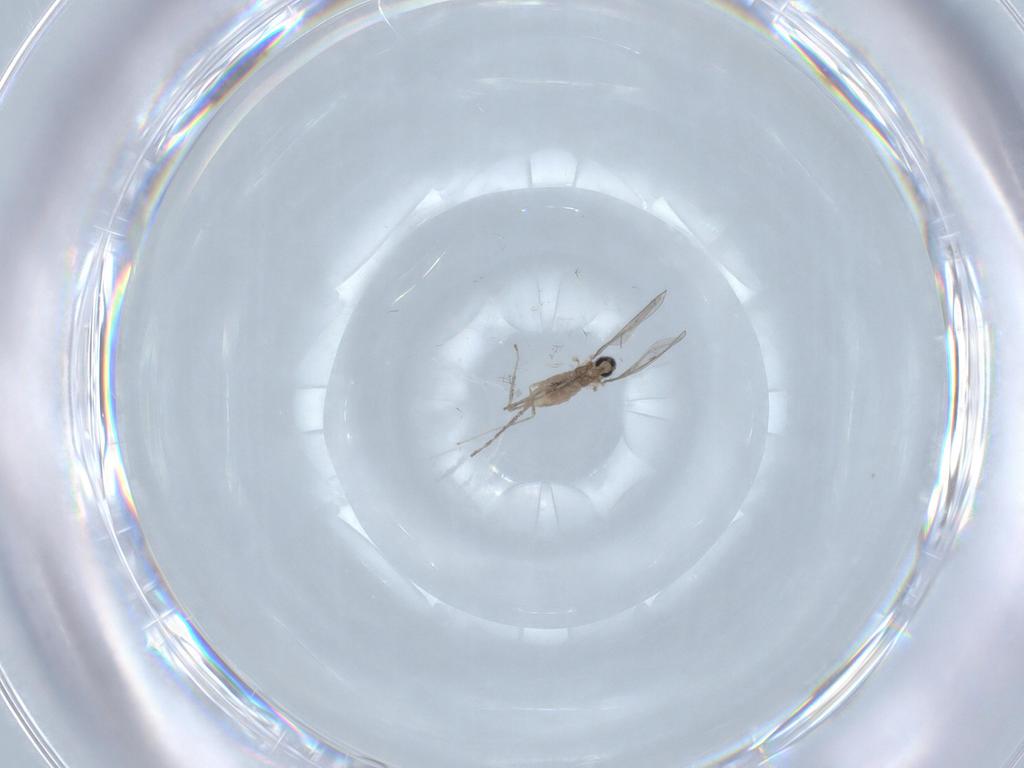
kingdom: Animalia
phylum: Arthropoda
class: Insecta
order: Diptera
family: Cecidomyiidae
